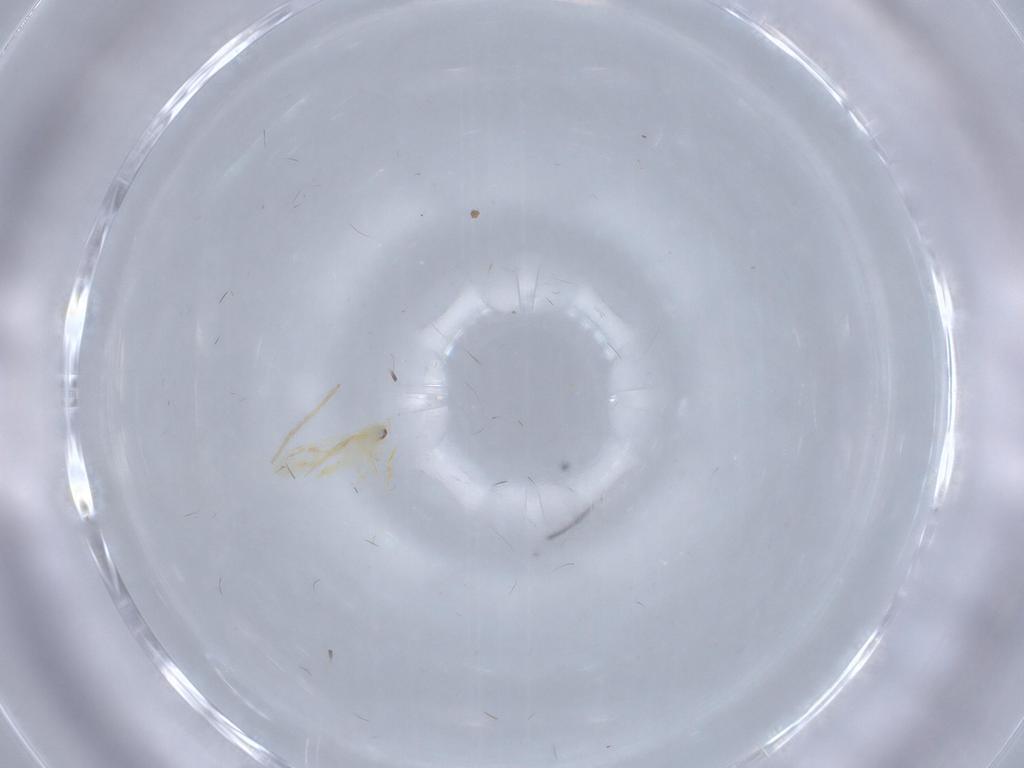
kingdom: Animalia
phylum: Arthropoda
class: Insecta
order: Hemiptera
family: Aleyrodidae
